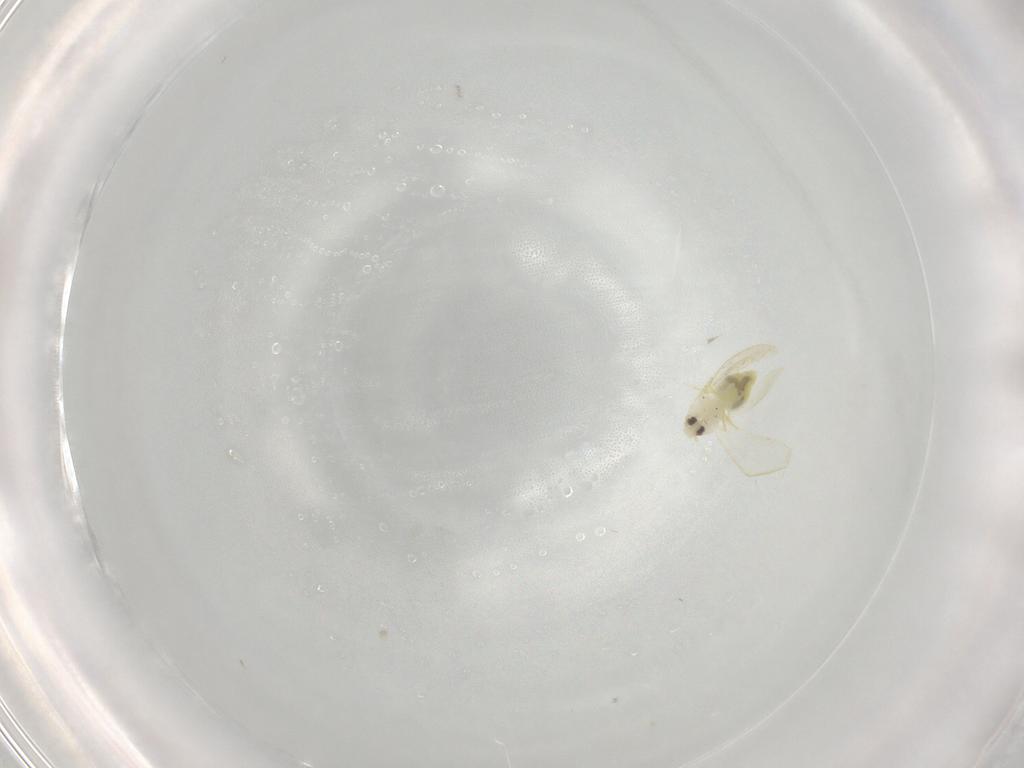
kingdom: Animalia
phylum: Arthropoda
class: Insecta
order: Hemiptera
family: Aleyrodidae
